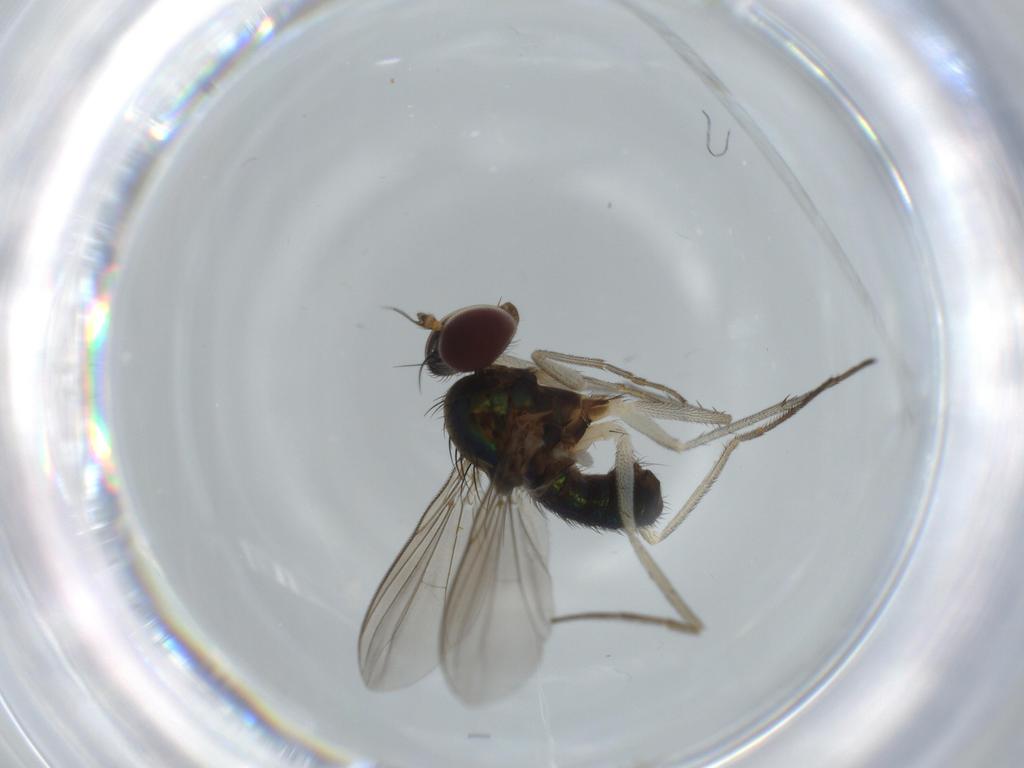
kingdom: Animalia
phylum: Arthropoda
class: Insecta
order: Diptera
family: Dolichopodidae
